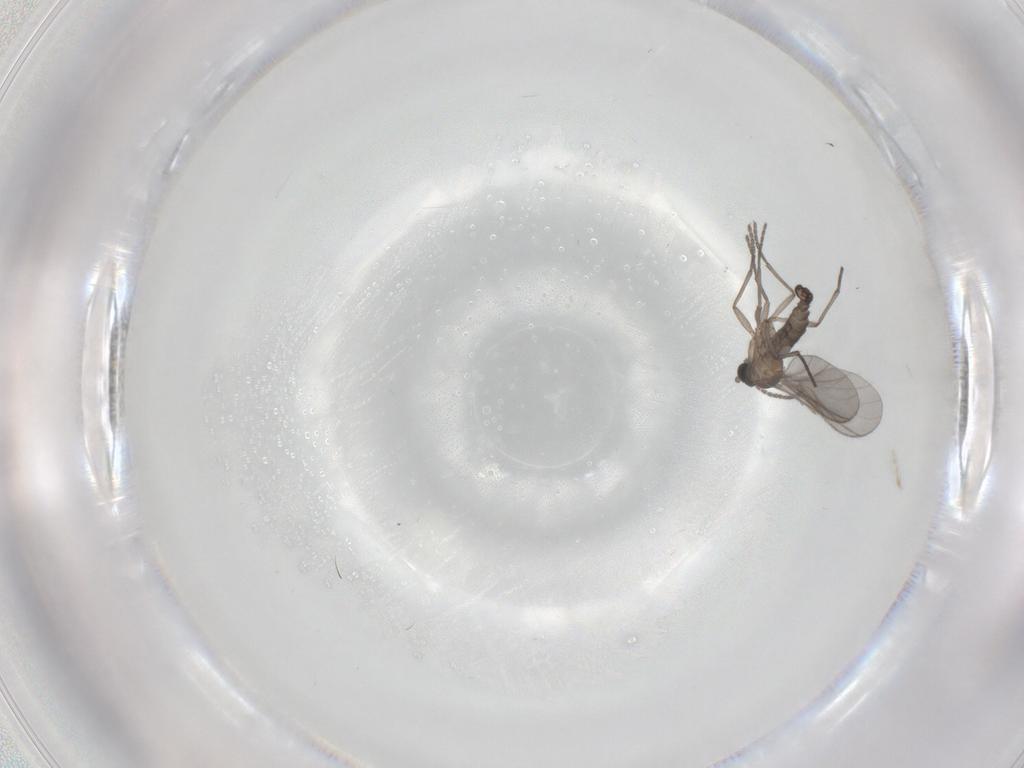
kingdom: Animalia
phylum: Arthropoda
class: Insecta
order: Diptera
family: Sciaridae
